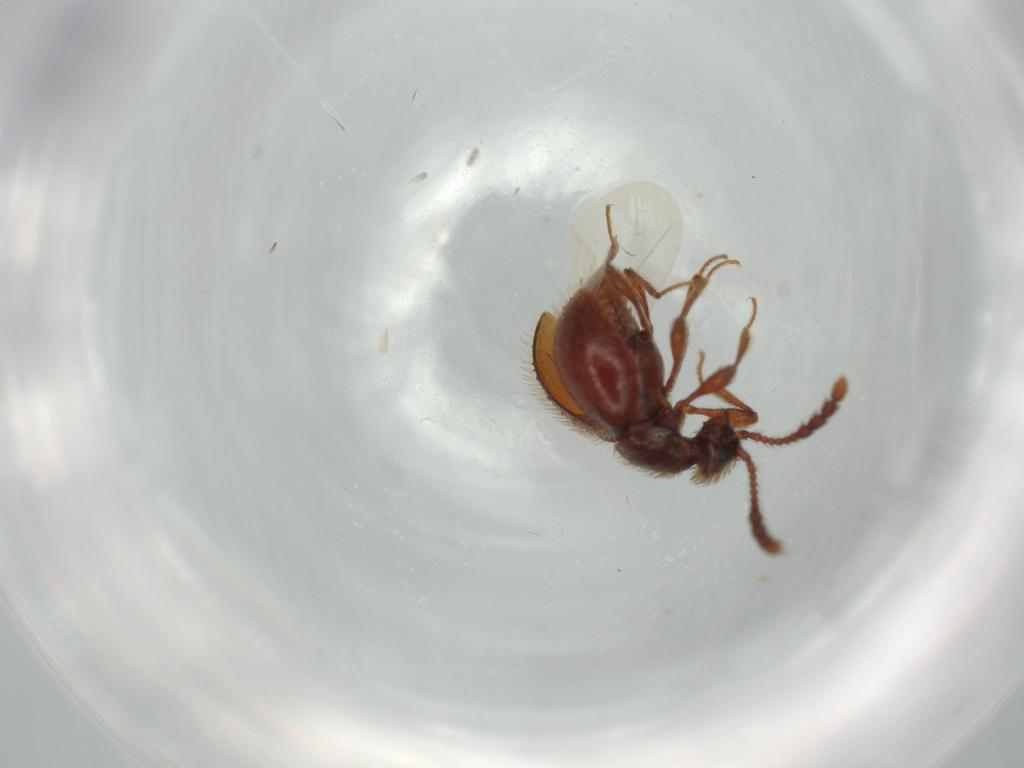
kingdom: Animalia
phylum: Arthropoda
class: Insecta
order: Coleoptera
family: Staphylinidae
